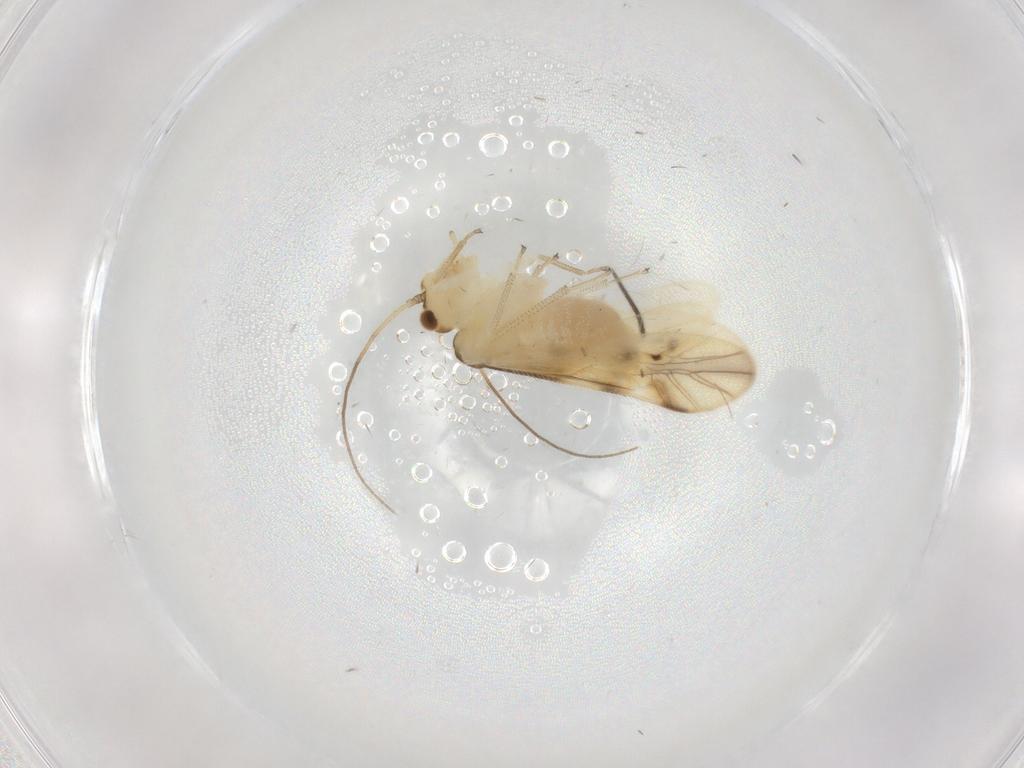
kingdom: Animalia
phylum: Arthropoda
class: Insecta
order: Psocodea
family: Caeciliusidae
